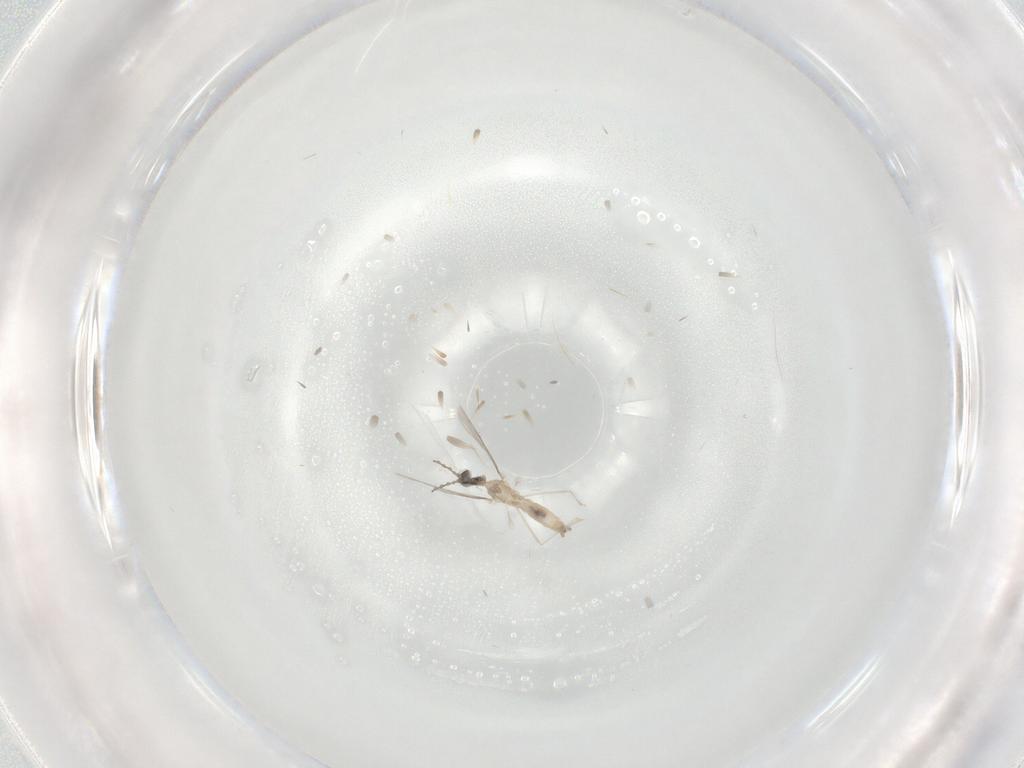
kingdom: Animalia
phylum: Arthropoda
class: Insecta
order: Diptera
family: Cecidomyiidae
